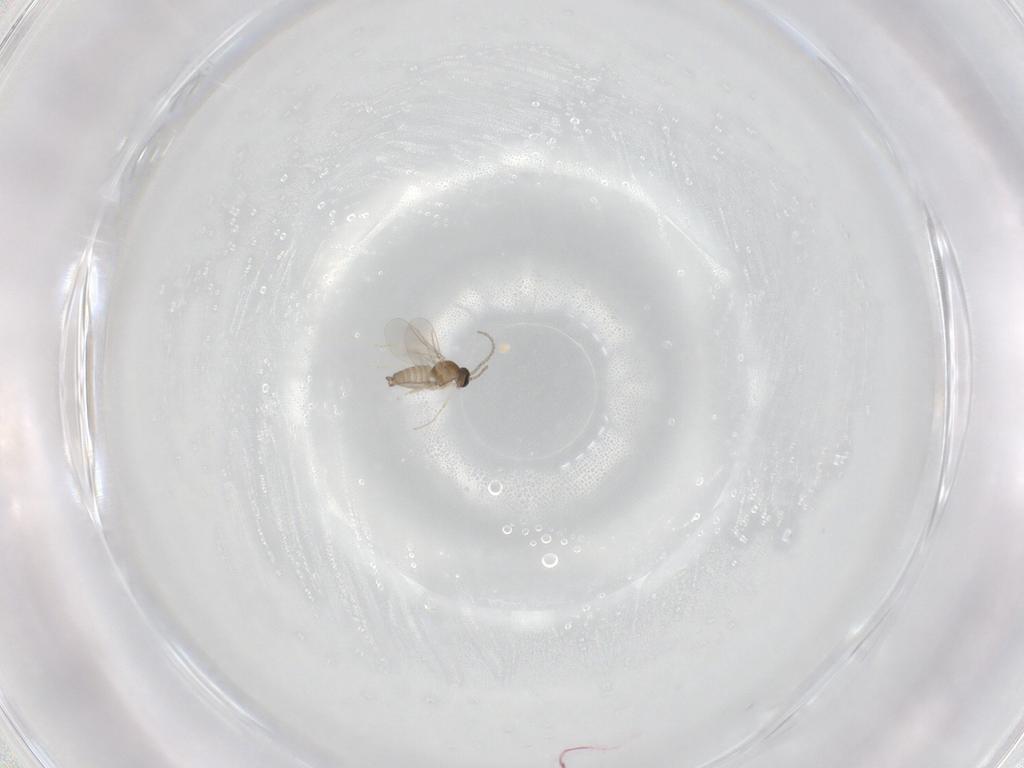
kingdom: Animalia
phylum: Arthropoda
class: Insecta
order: Diptera
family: Cecidomyiidae
